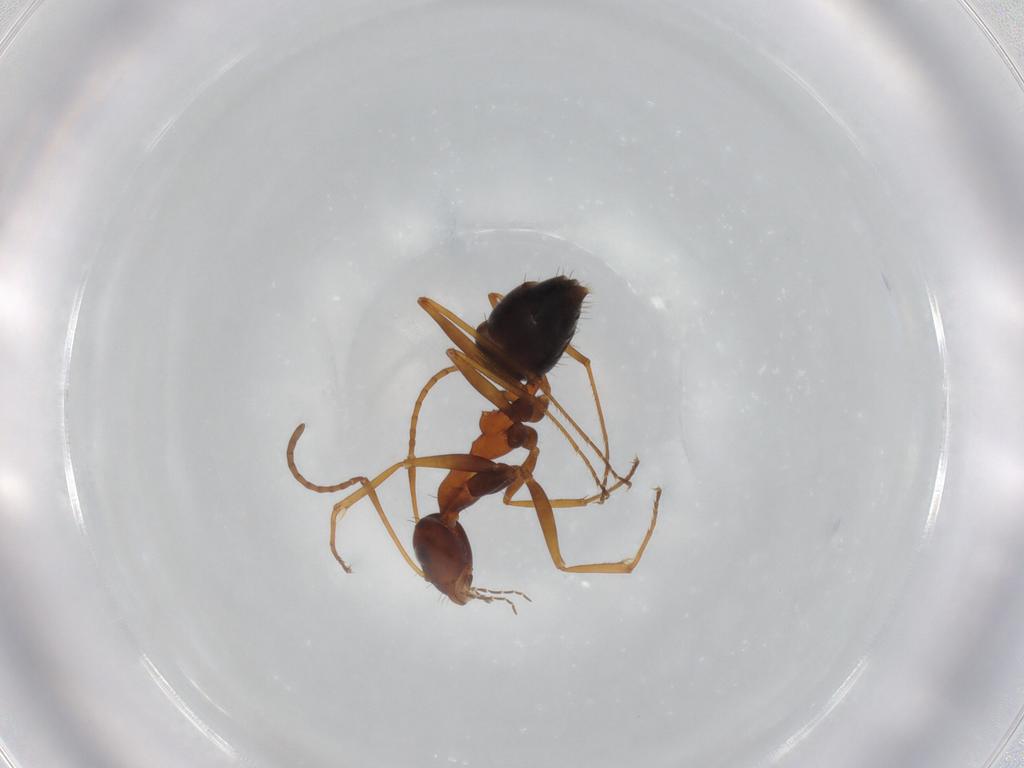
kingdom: Animalia
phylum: Arthropoda
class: Insecta
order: Hymenoptera
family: Formicidae
